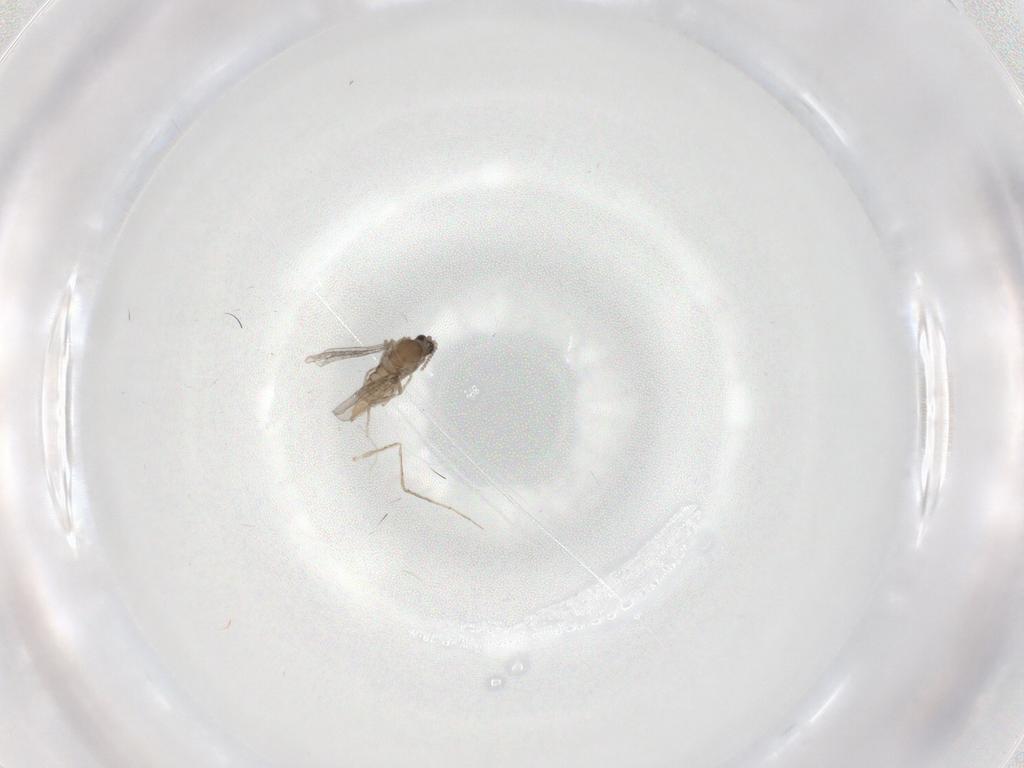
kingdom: Animalia
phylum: Arthropoda
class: Insecta
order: Diptera
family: Cecidomyiidae
